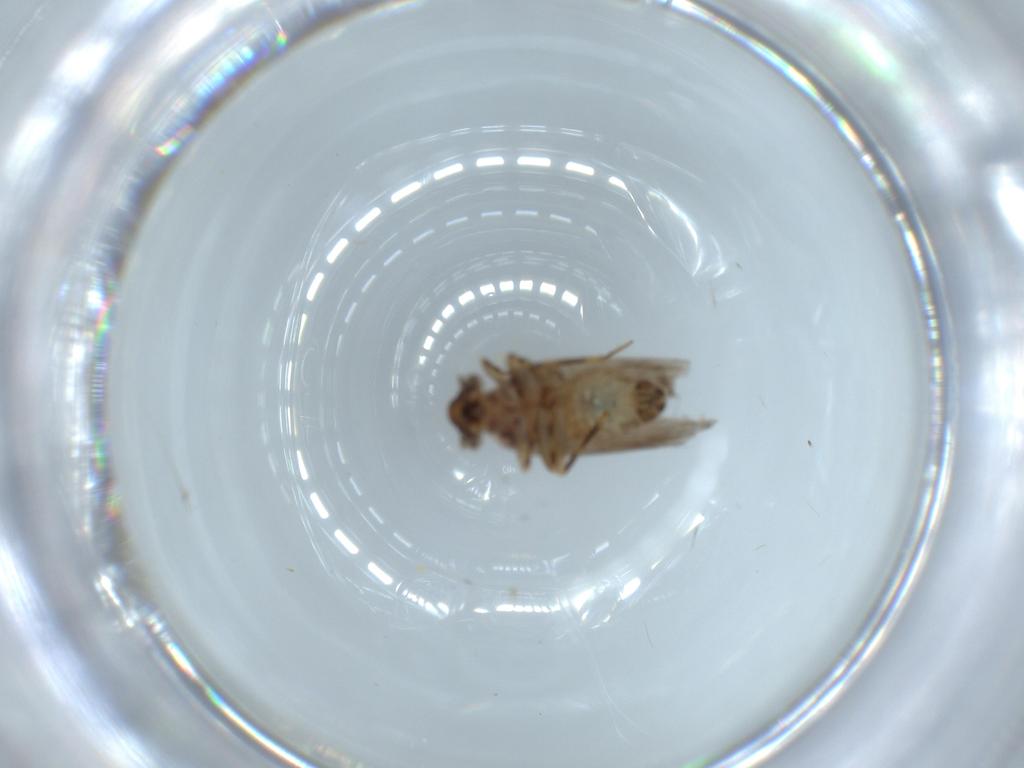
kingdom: Animalia
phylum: Arthropoda
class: Insecta
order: Psocodea
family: Lepidopsocidae
